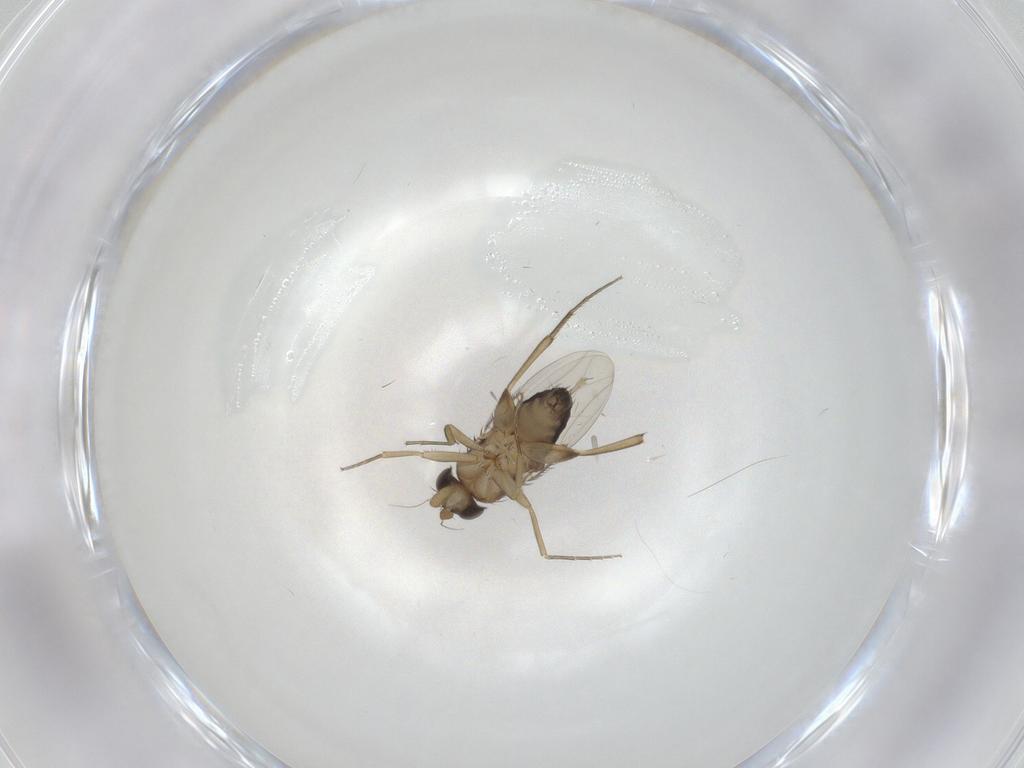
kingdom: Animalia
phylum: Arthropoda
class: Insecta
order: Diptera
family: Phoridae
